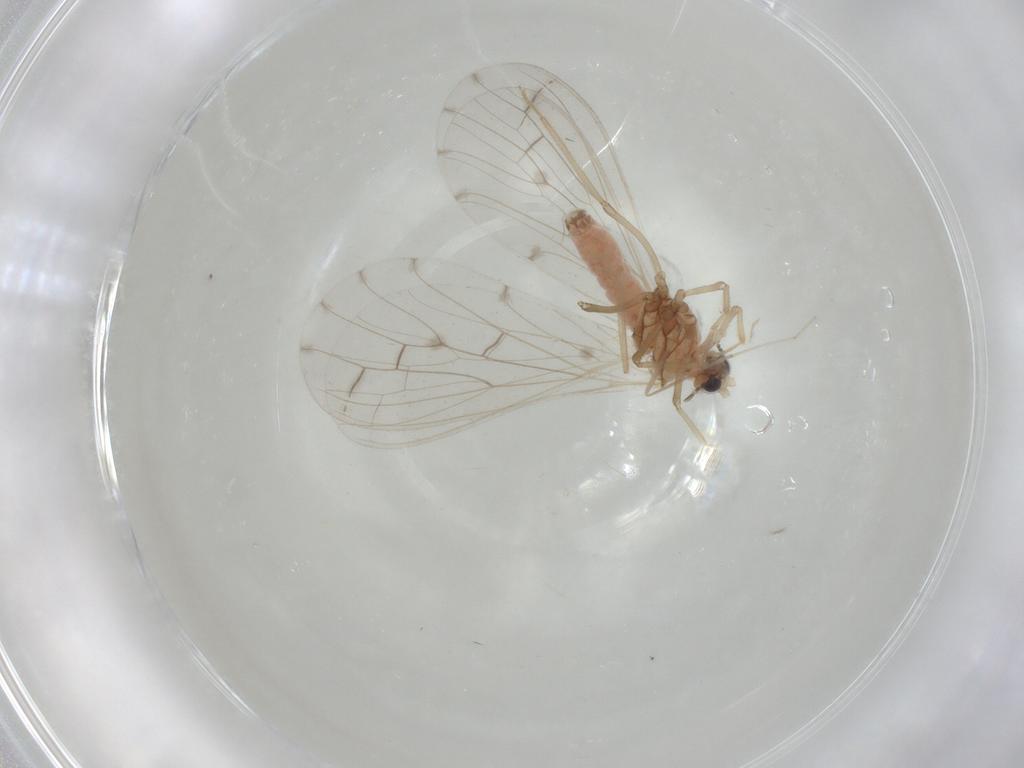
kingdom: Animalia
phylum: Arthropoda
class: Insecta
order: Neuroptera
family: Coniopterygidae
